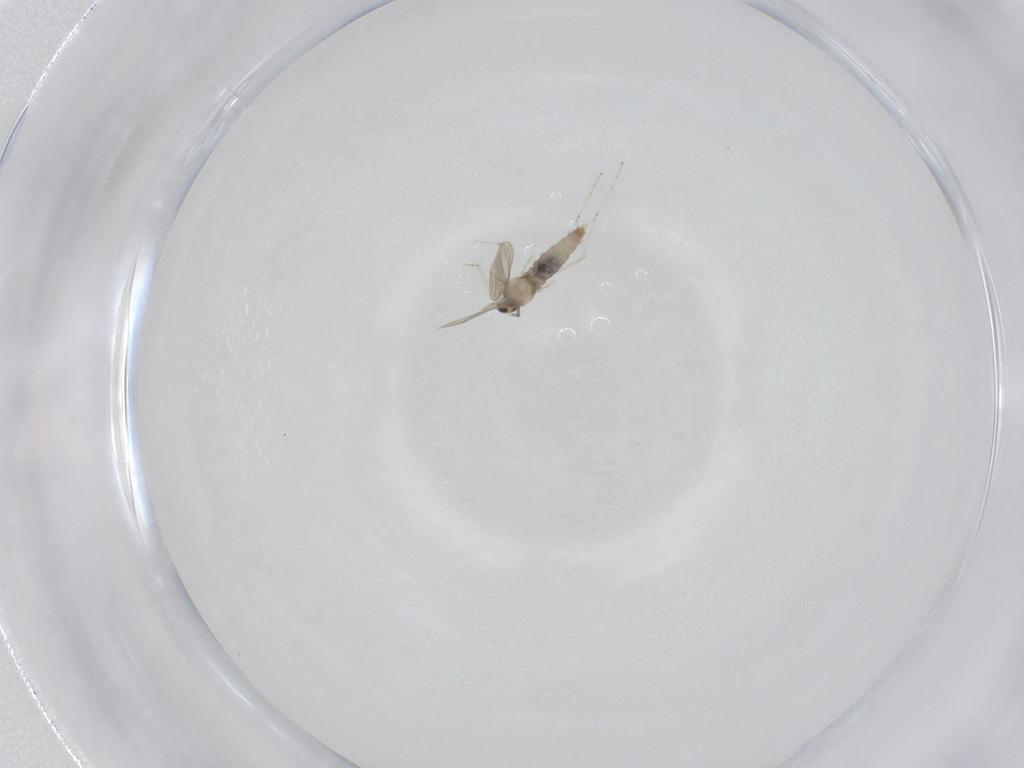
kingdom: Animalia
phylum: Arthropoda
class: Insecta
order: Diptera
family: Cecidomyiidae
